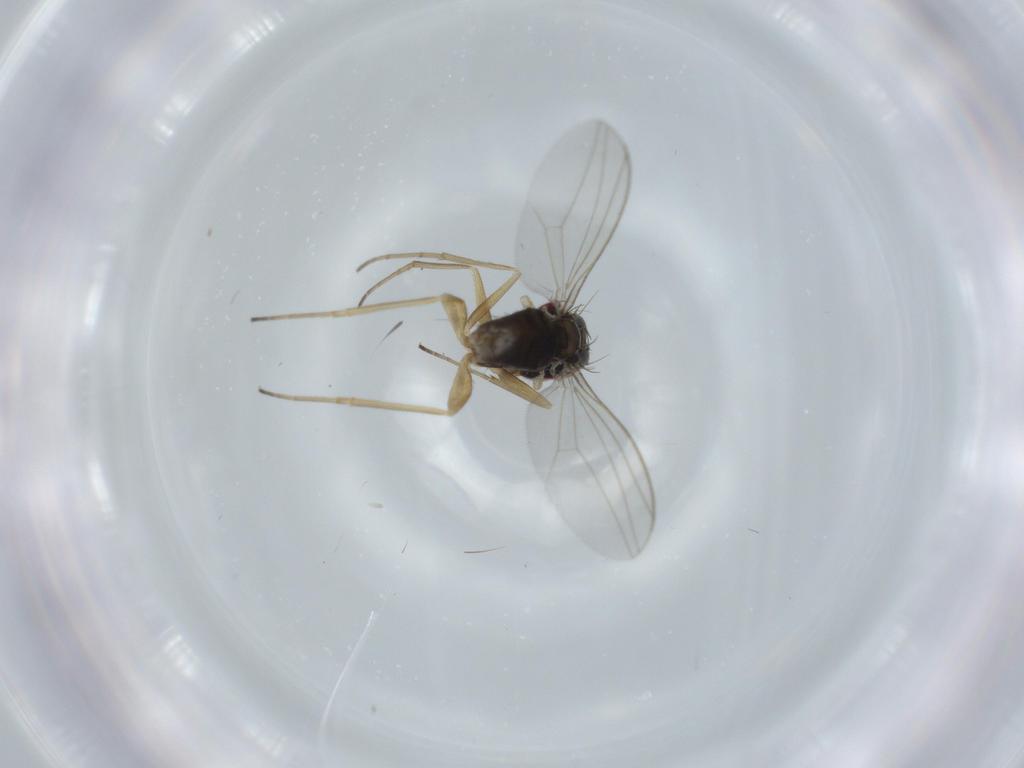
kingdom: Animalia
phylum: Arthropoda
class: Insecta
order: Diptera
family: Dolichopodidae
